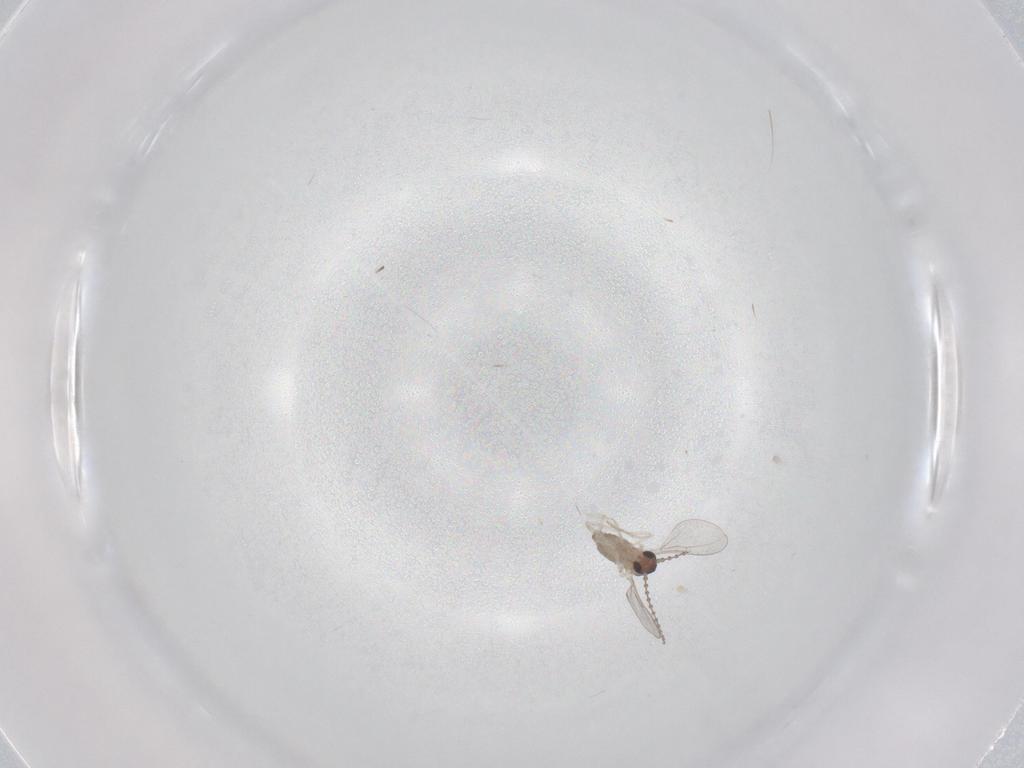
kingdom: Animalia
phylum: Arthropoda
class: Insecta
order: Diptera
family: Cecidomyiidae
